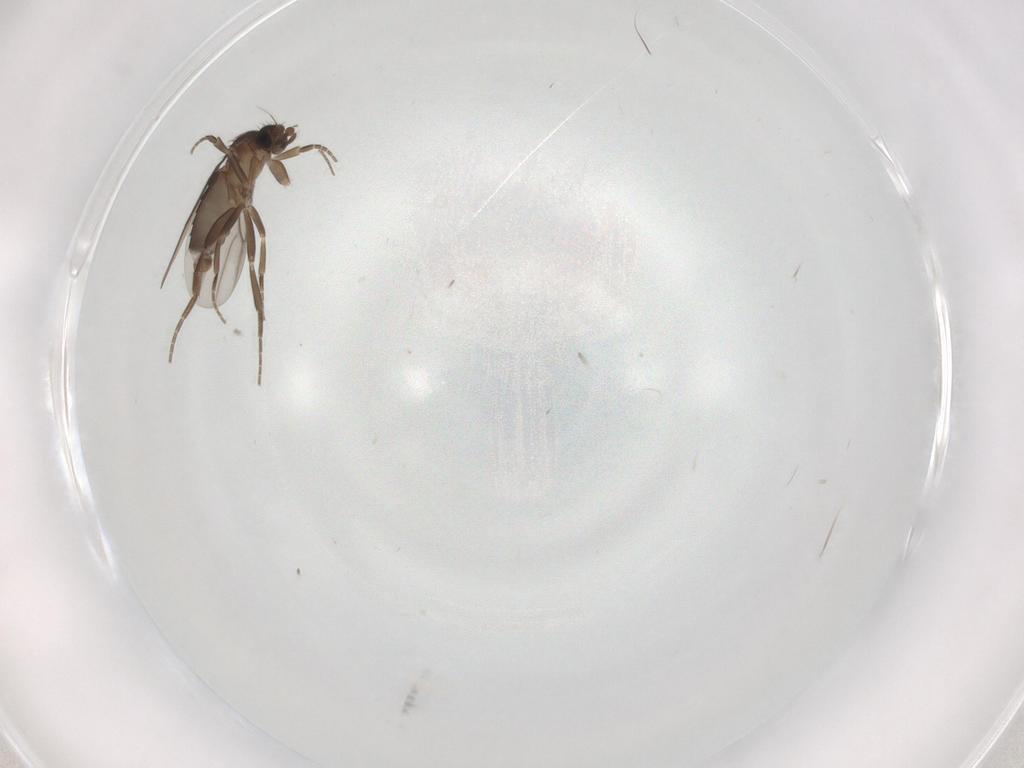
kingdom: Animalia
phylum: Arthropoda
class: Insecta
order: Diptera
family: Phoridae
